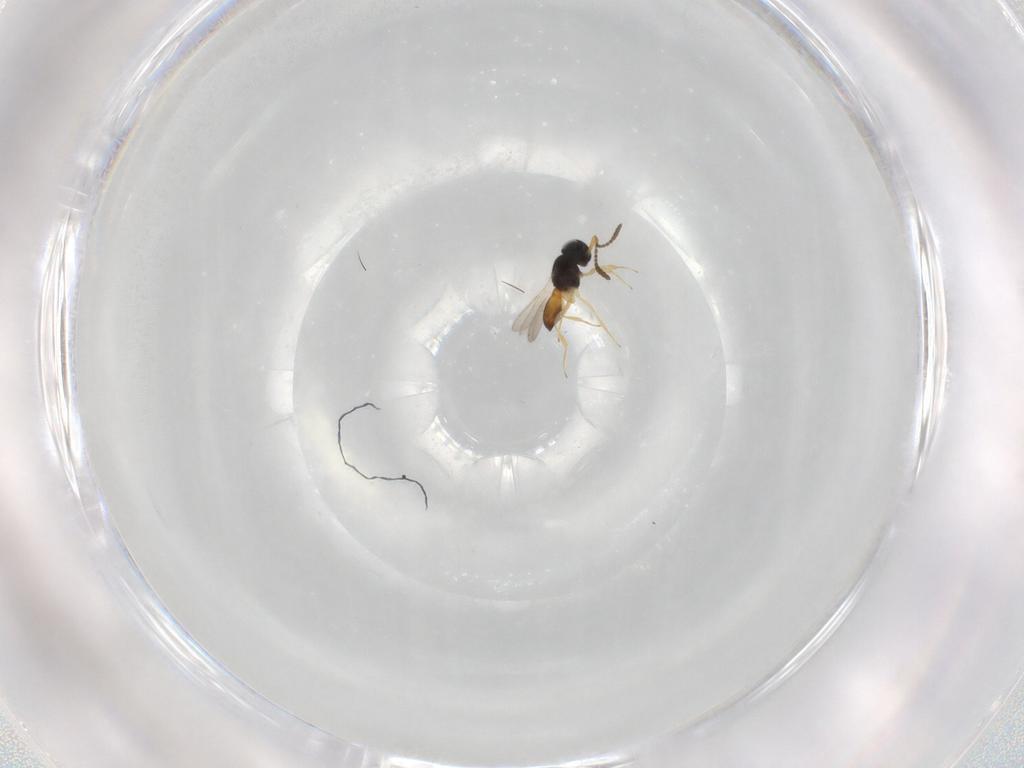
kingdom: Animalia
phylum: Arthropoda
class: Insecta
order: Hymenoptera
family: Scelionidae
